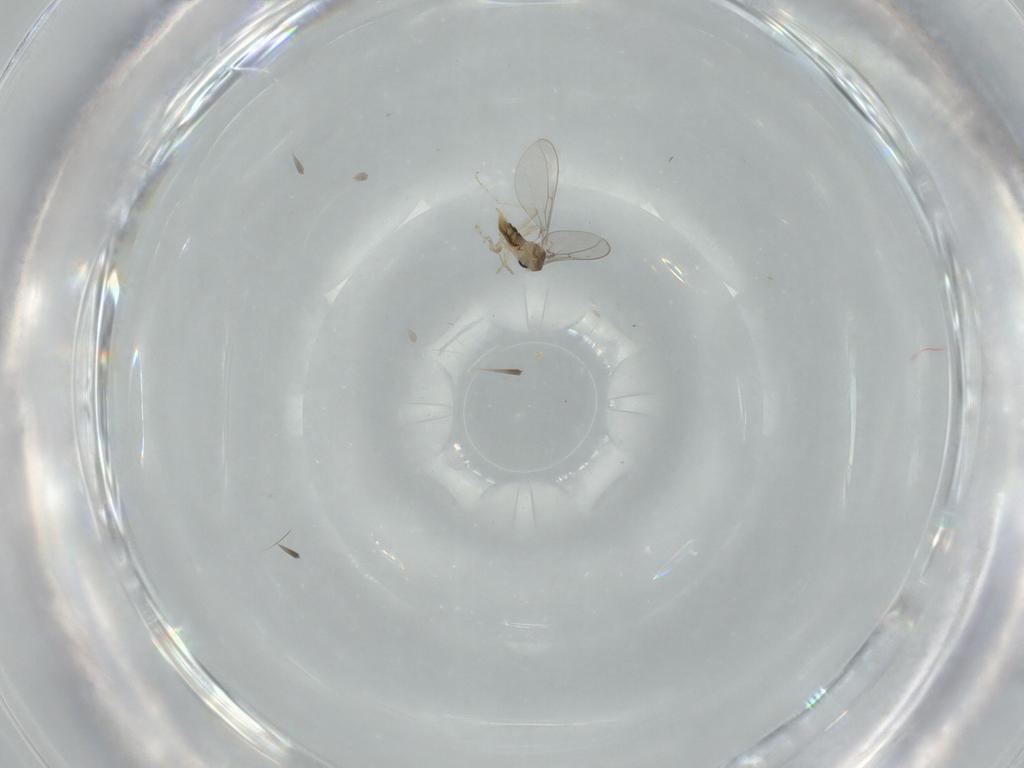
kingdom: Animalia
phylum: Arthropoda
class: Insecta
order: Diptera
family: Cecidomyiidae
